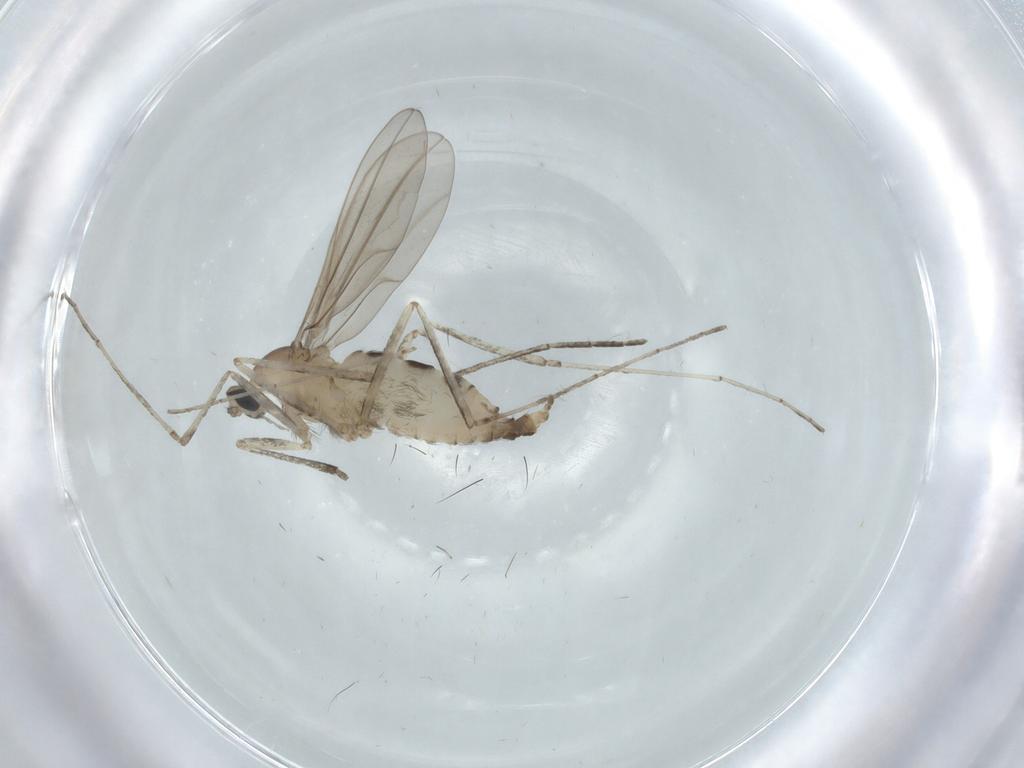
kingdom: Animalia
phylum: Arthropoda
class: Insecta
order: Diptera
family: Cecidomyiidae
